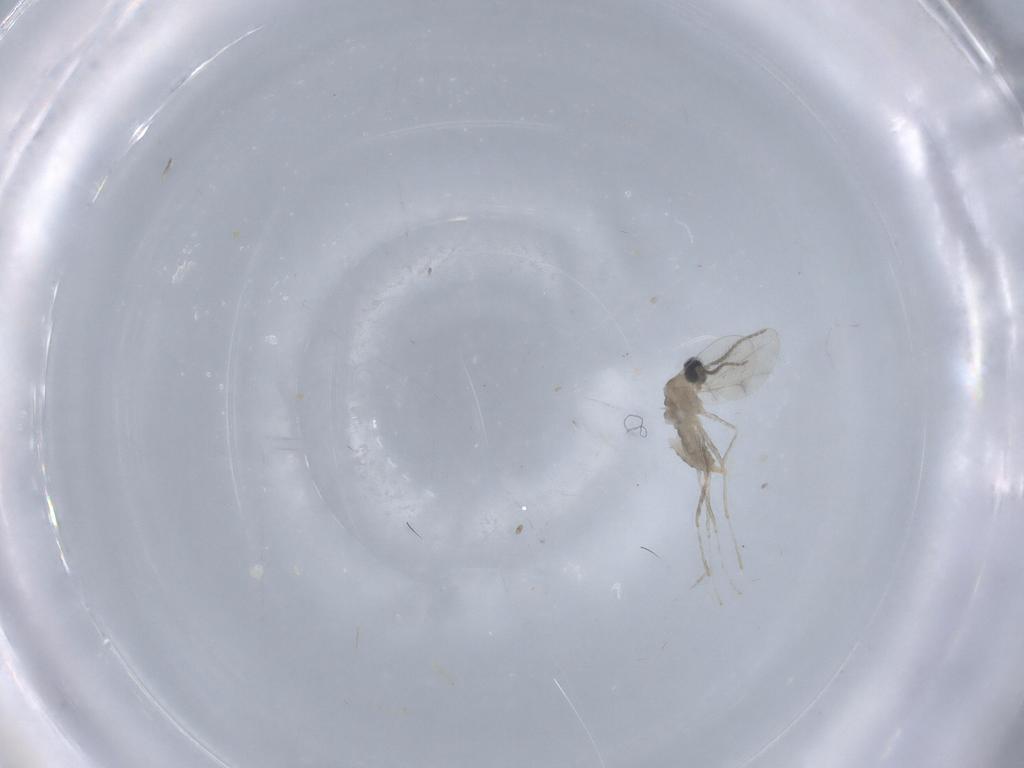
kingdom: Animalia
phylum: Arthropoda
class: Insecta
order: Diptera
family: Cecidomyiidae
